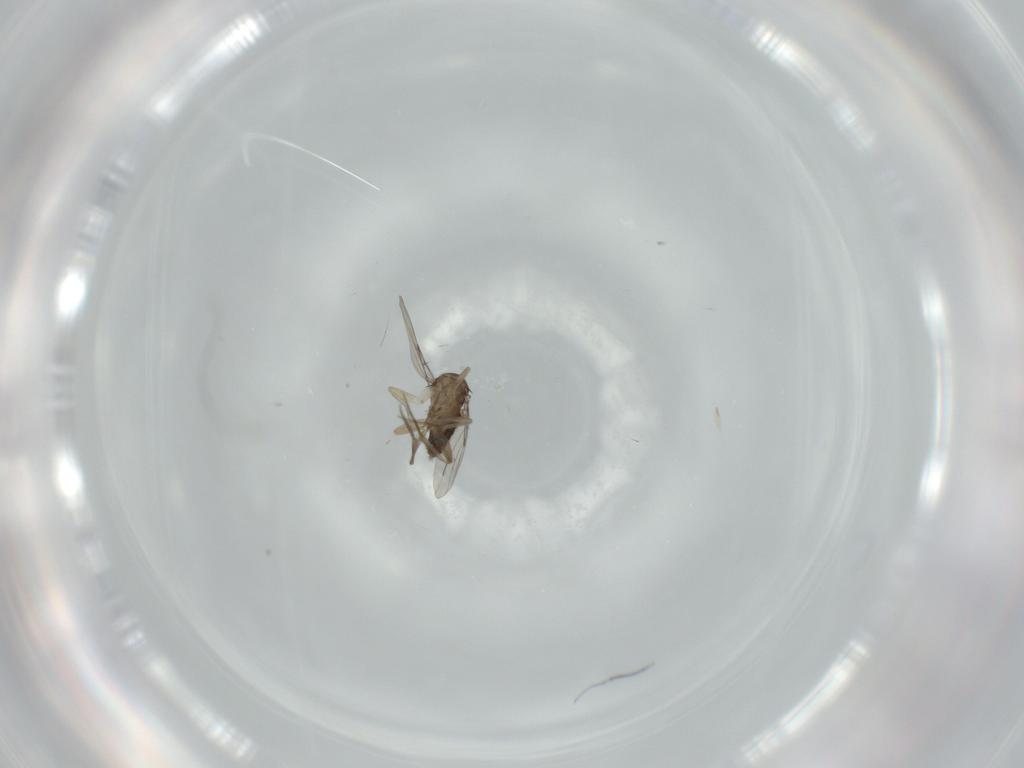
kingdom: Animalia
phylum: Arthropoda
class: Insecta
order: Diptera
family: Phoridae
